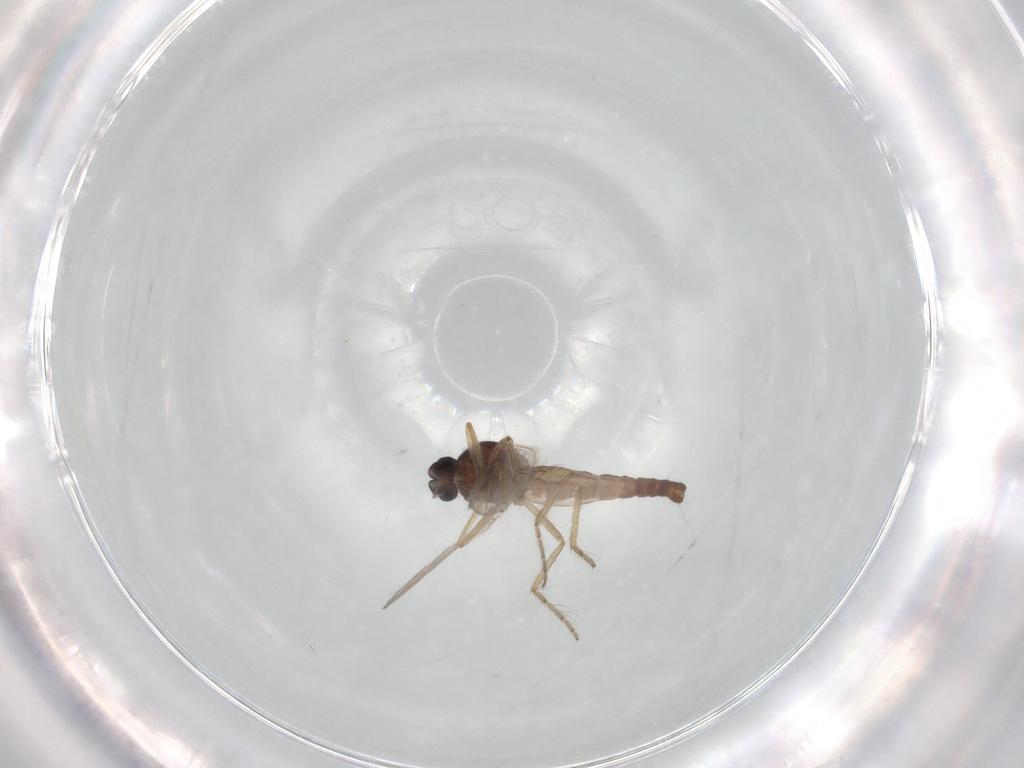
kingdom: Animalia
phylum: Arthropoda
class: Insecta
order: Diptera
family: Ceratopogonidae
